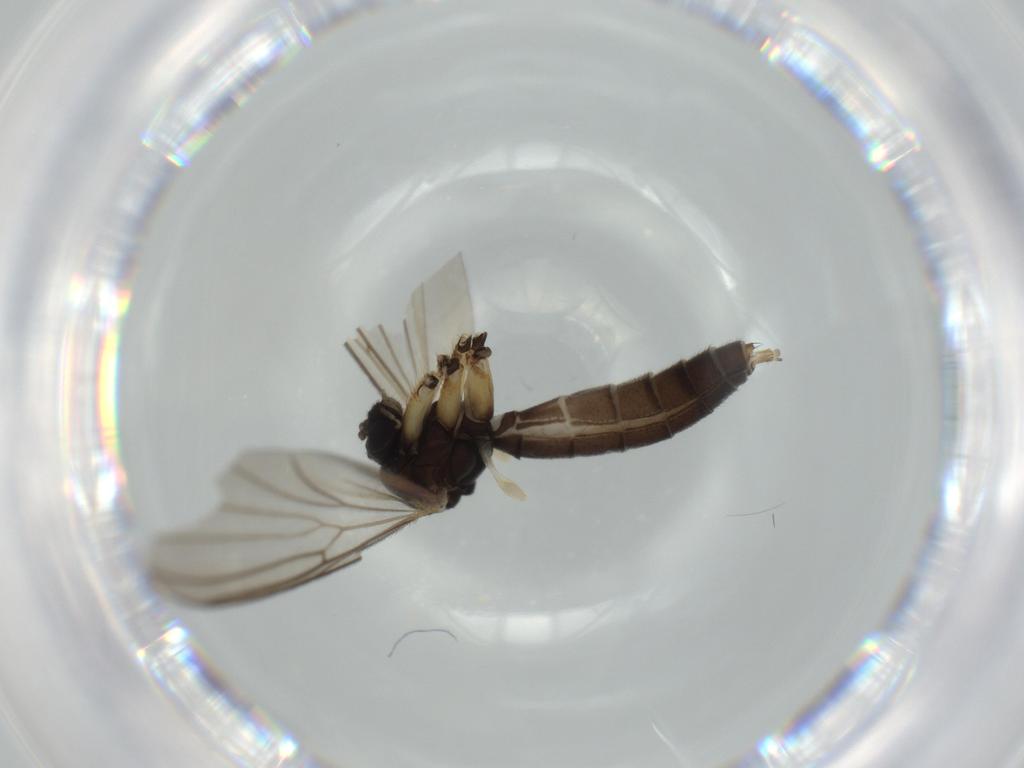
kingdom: Animalia
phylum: Arthropoda
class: Insecta
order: Diptera
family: Mycetophilidae
